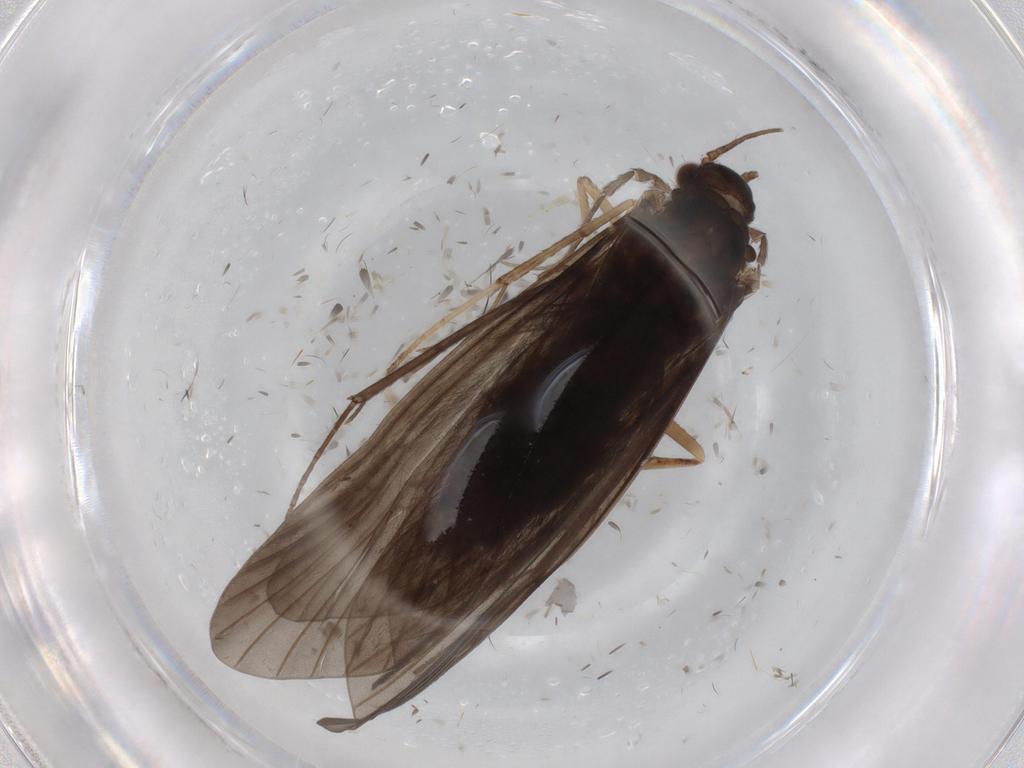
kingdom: Animalia
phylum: Arthropoda
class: Insecta
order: Trichoptera
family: Hydropsychidae
